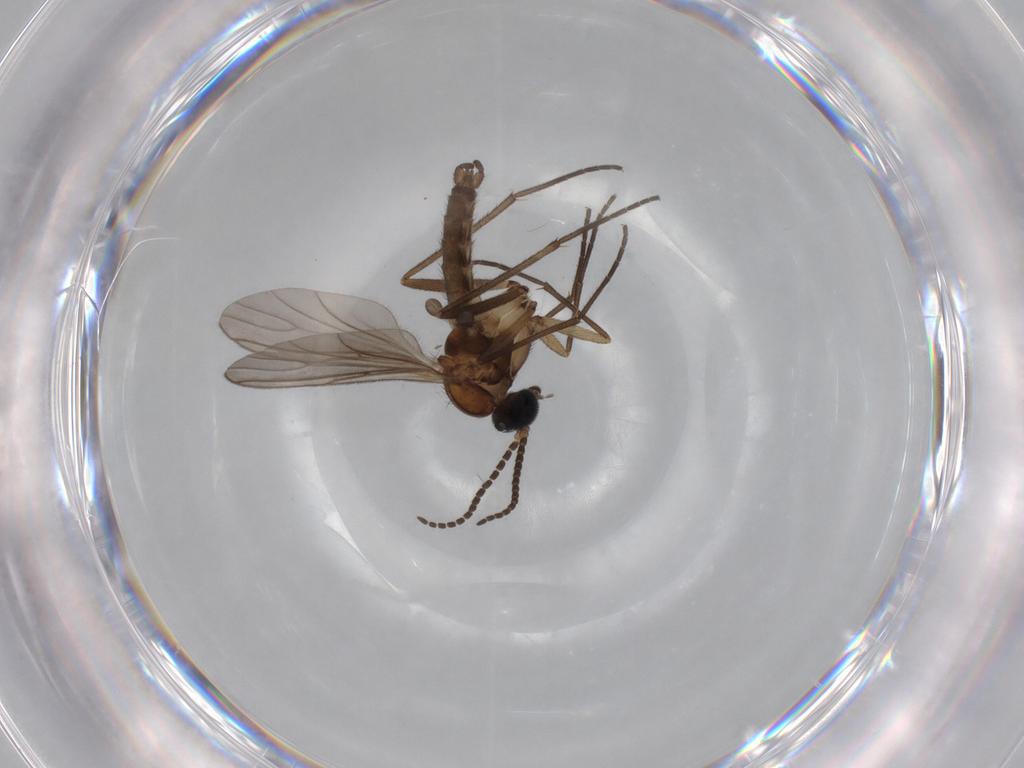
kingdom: Animalia
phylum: Arthropoda
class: Insecta
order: Diptera
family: Sciaridae
